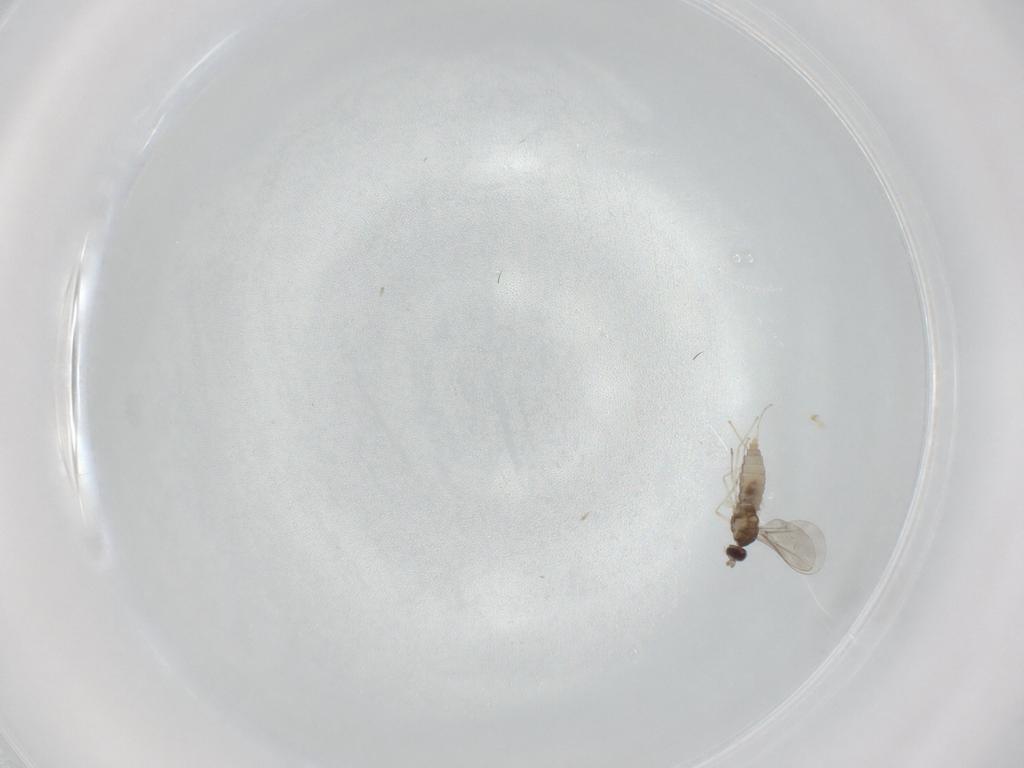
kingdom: Animalia
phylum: Arthropoda
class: Insecta
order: Diptera
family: Cecidomyiidae
